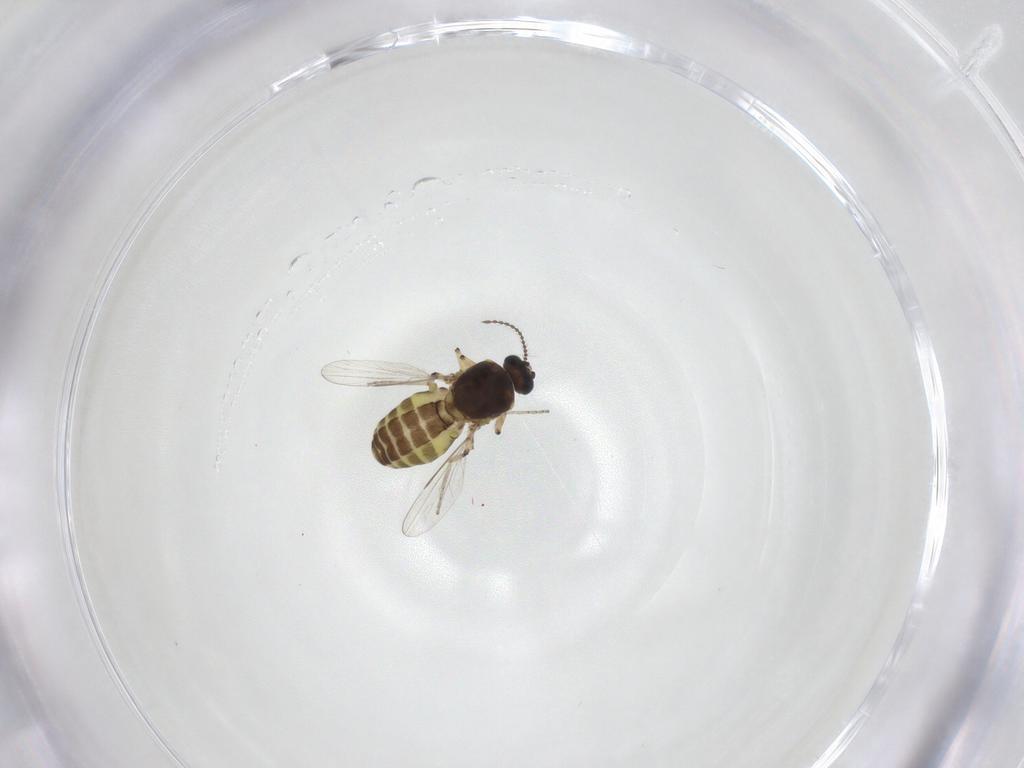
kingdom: Animalia
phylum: Arthropoda
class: Insecta
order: Diptera
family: Ceratopogonidae
